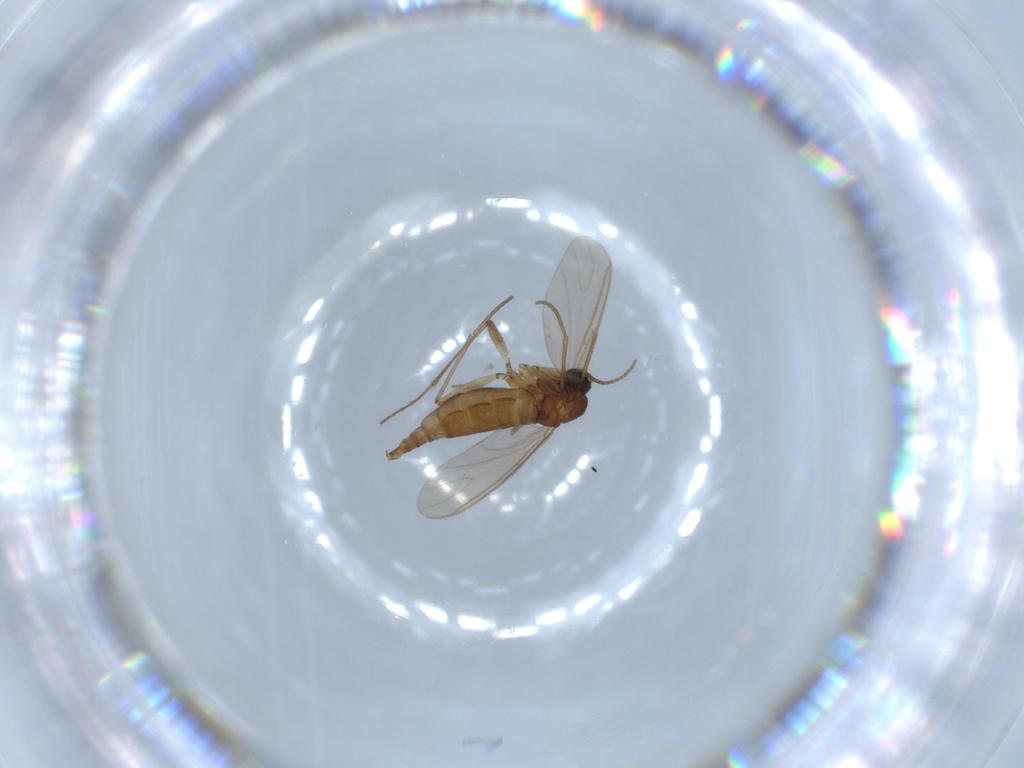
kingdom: Animalia
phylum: Arthropoda
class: Insecta
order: Diptera
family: Sciaridae
